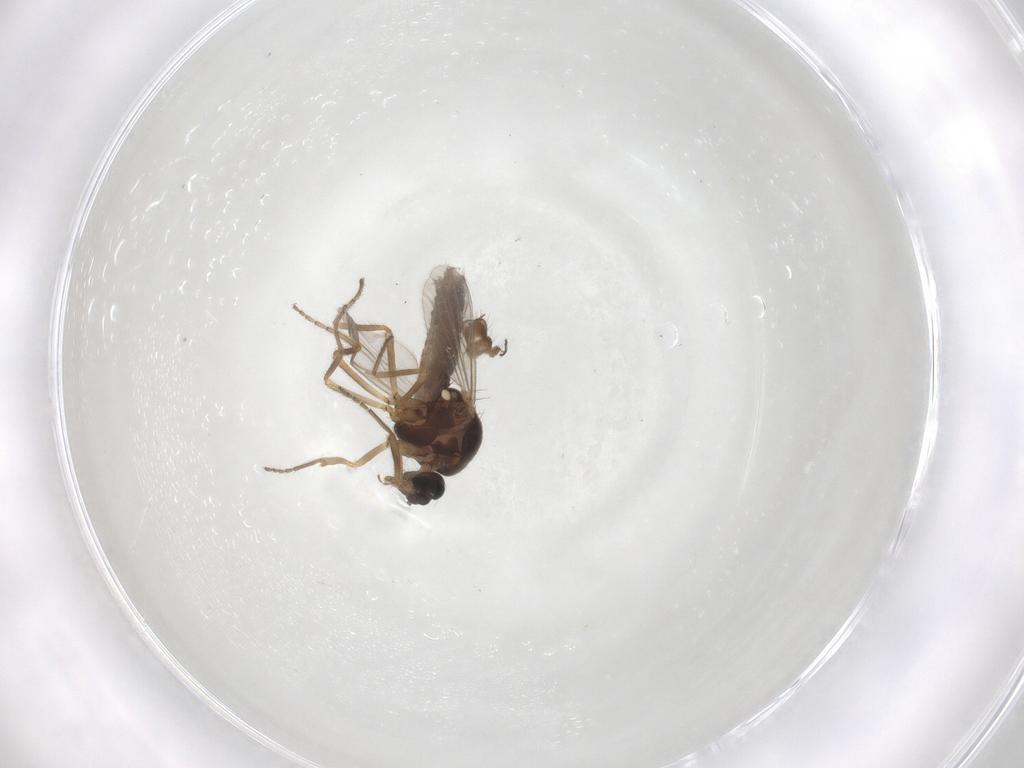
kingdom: Animalia
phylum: Arthropoda
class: Insecta
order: Diptera
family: Ceratopogonidae
